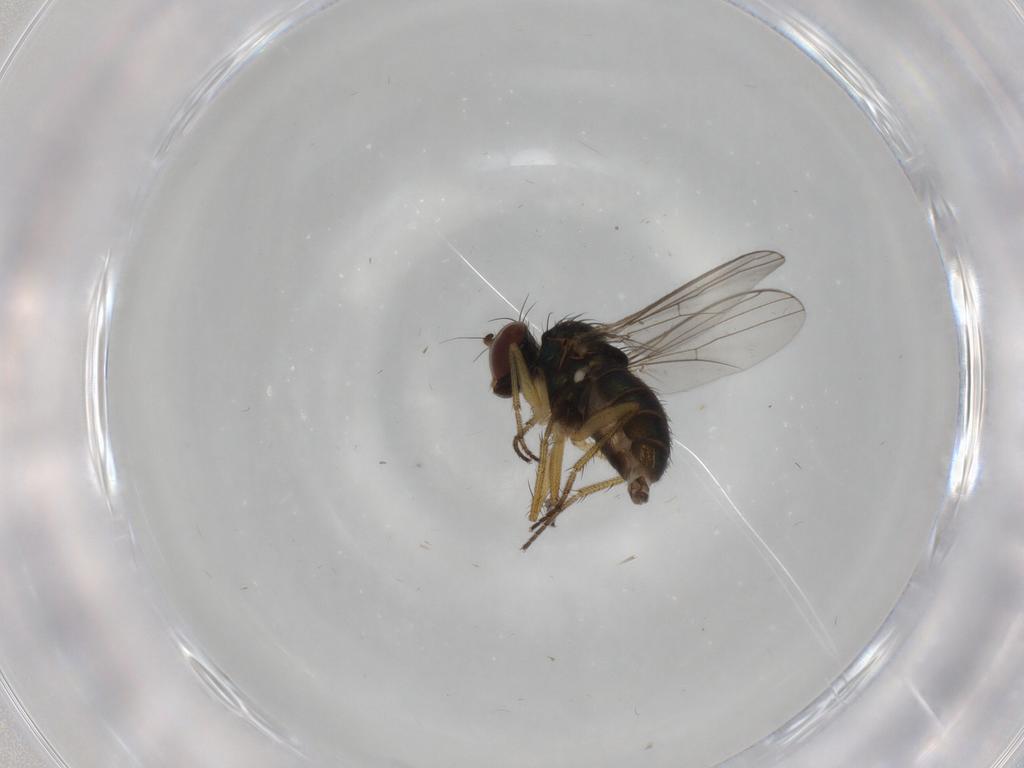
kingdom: Animalia
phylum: Arthropoda
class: Insecta
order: Diptera
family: Dolichopodidae
